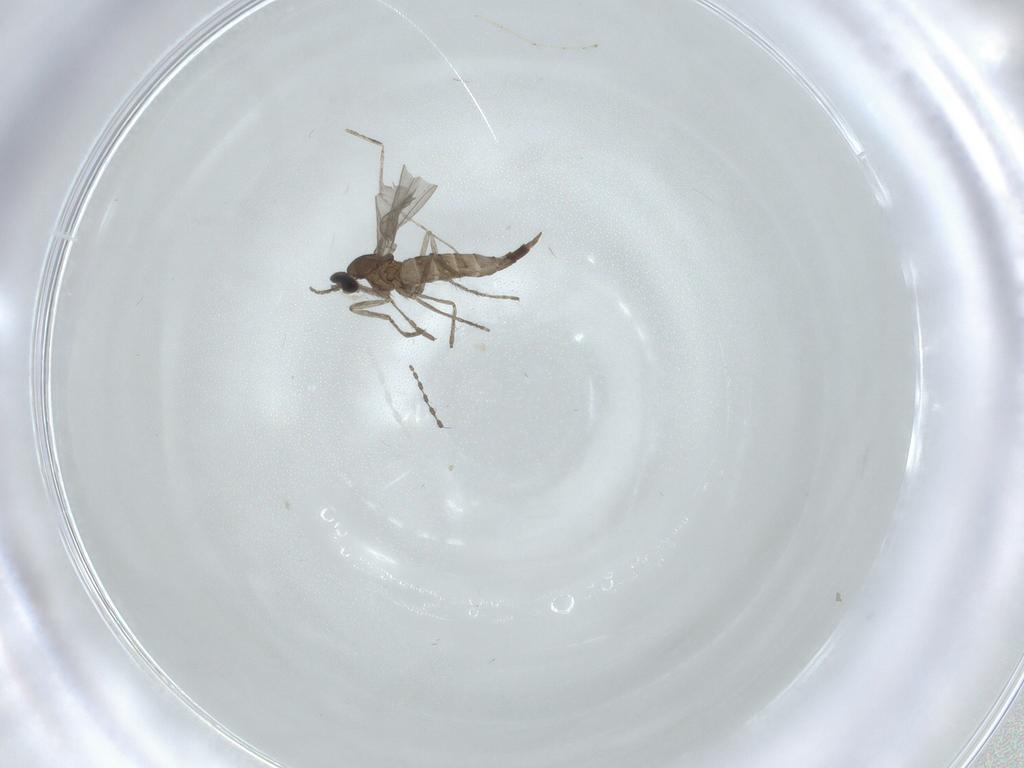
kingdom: Animalia
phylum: Arthropoda
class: Insecta
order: Diptera
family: Cecidomyiidae
